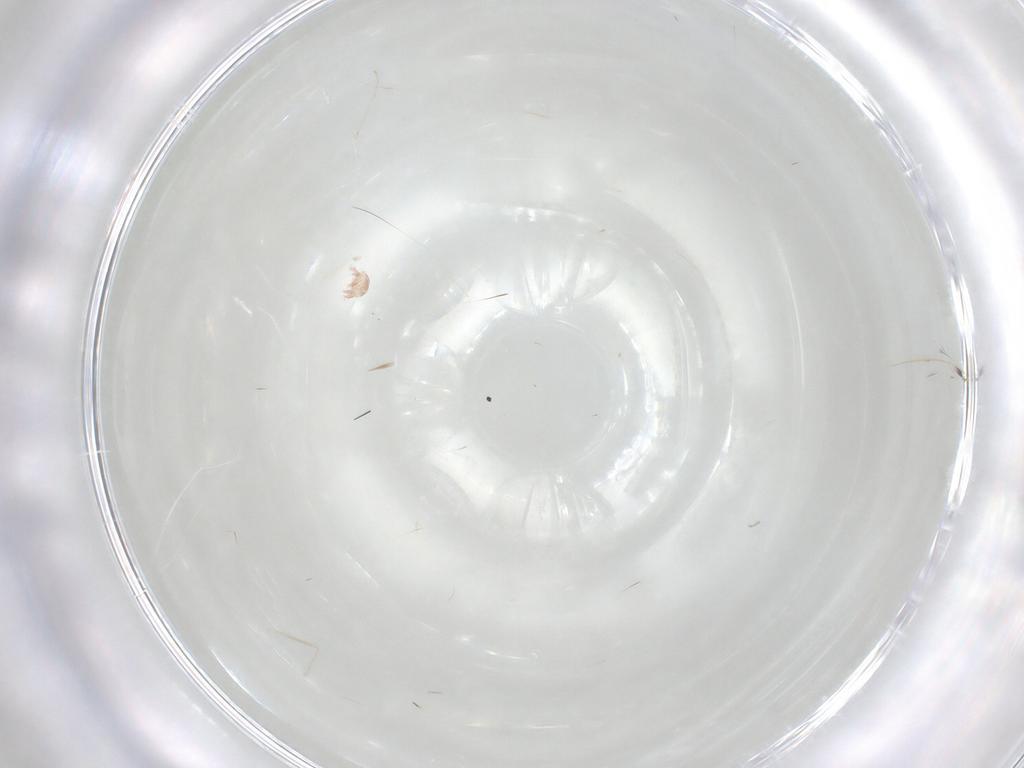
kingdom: Animalia
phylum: Arthropoda
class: Insecta
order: Diptera
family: Cecidomyiidae
